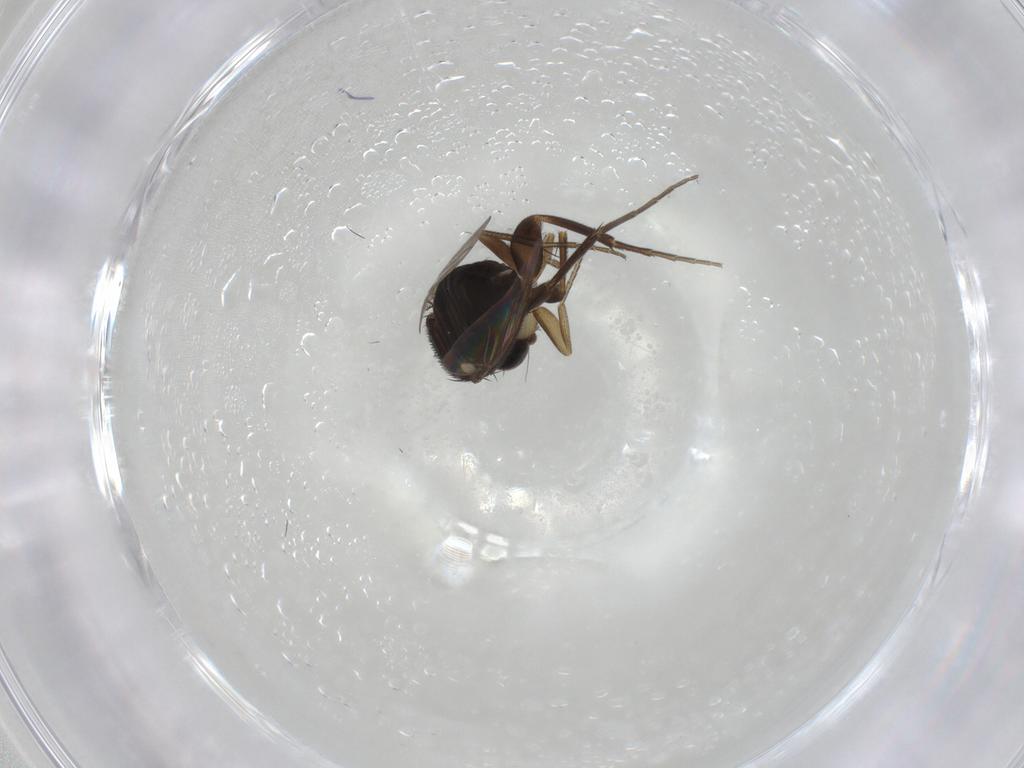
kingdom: Animalia
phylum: Arthropoda
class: Insecta
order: Diptera
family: Phoridae
